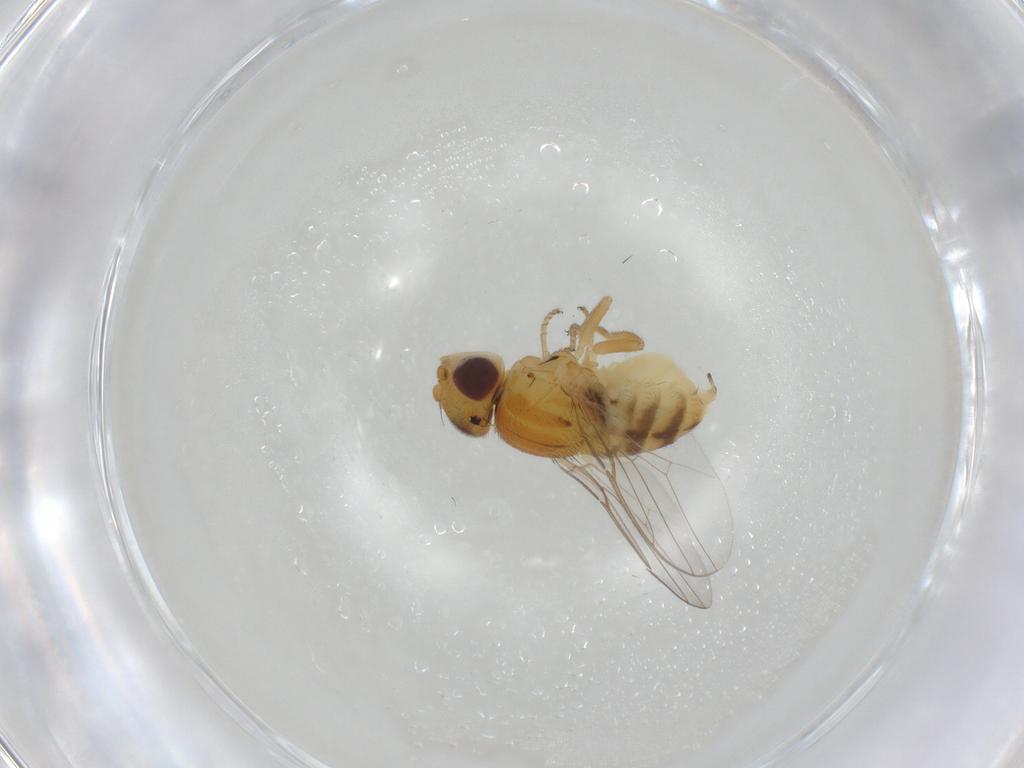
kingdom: Animalia
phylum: Arthropoda
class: Insecta
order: Diptera
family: Chloropidae
